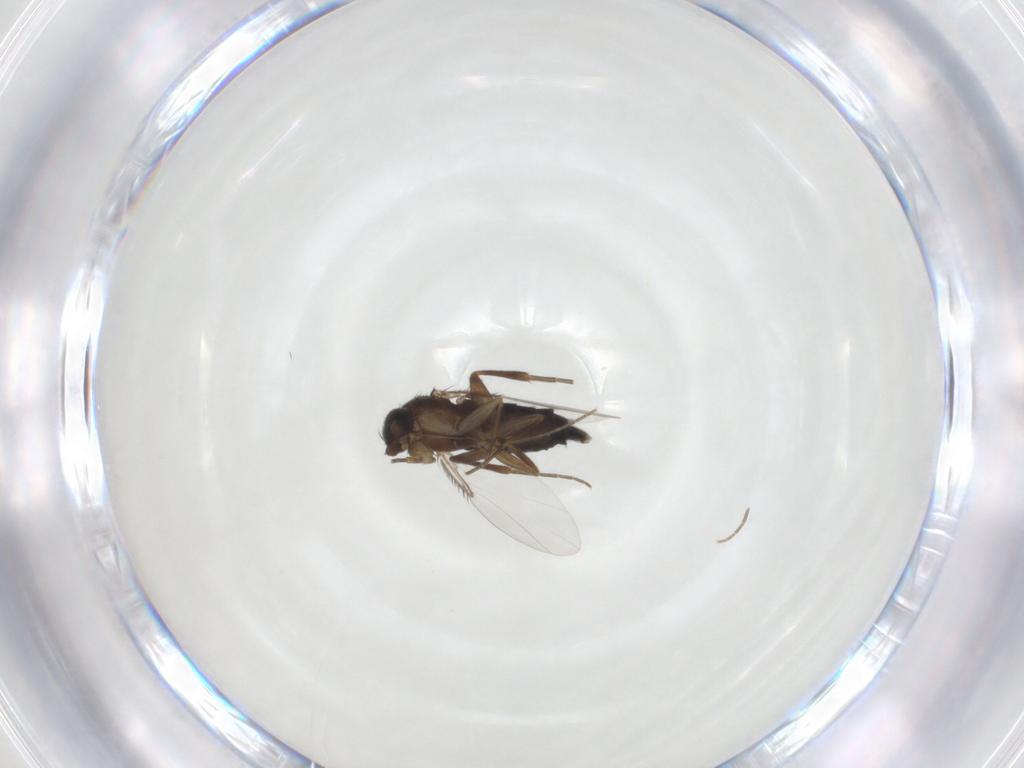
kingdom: Animalia
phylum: Arthropoda
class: Insecta
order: Diptera
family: Phoridae
